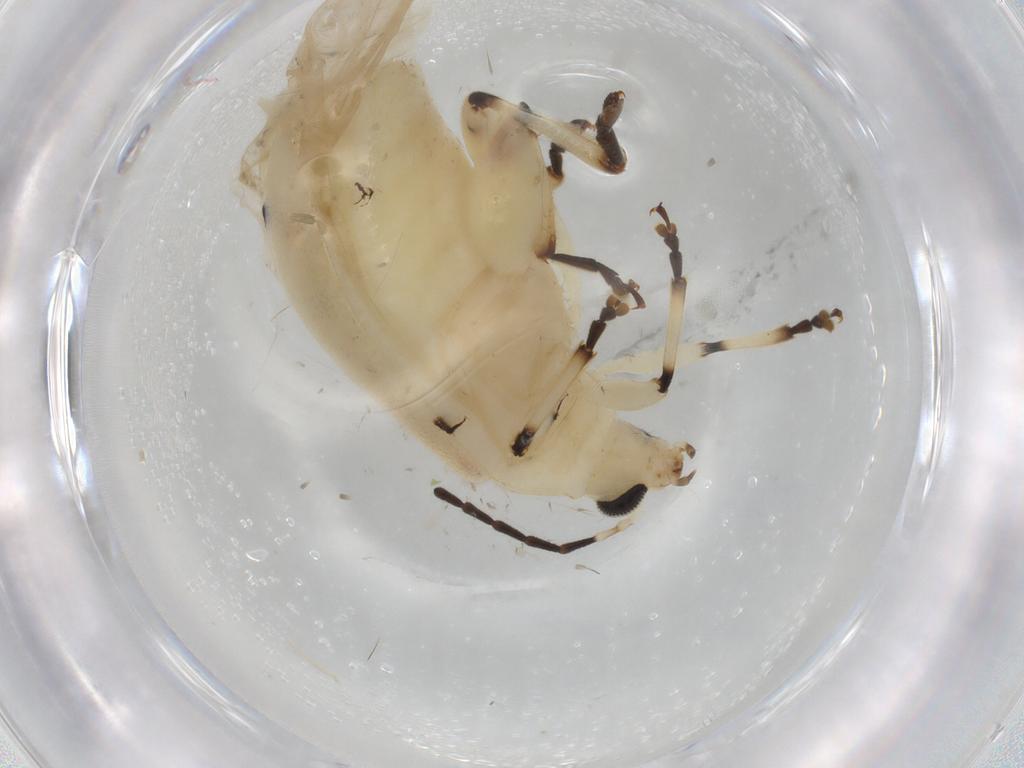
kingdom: Animalia
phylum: Arthropoda
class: Insecta
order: Coleoptera
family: Chrysomelidae
